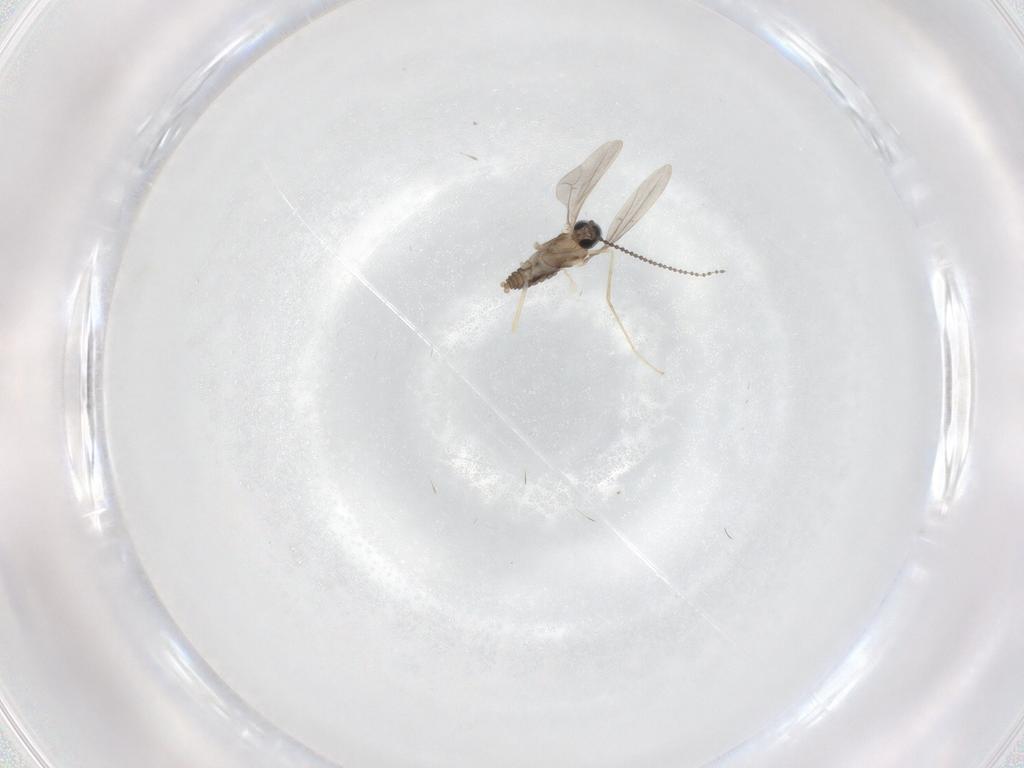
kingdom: Animalia
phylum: Arthropoda
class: Insecta
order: Diptera
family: Cecidomyiidae
